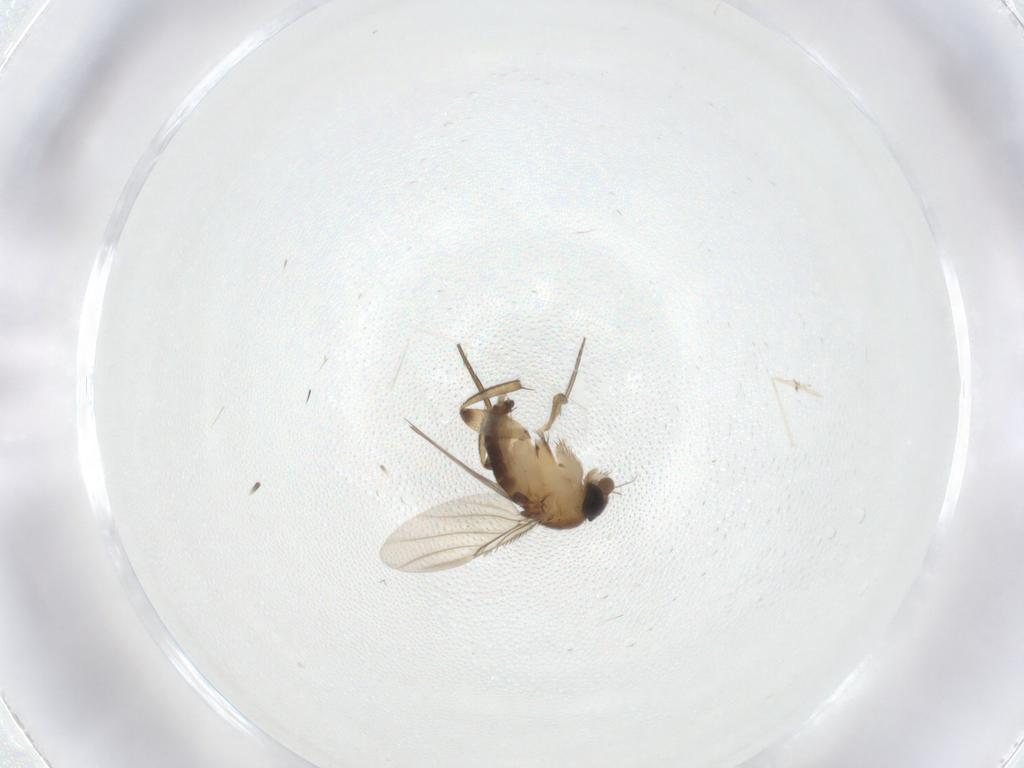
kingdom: Animalia
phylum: Arthropoda
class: Insecta
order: Diptera
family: Phoridae
